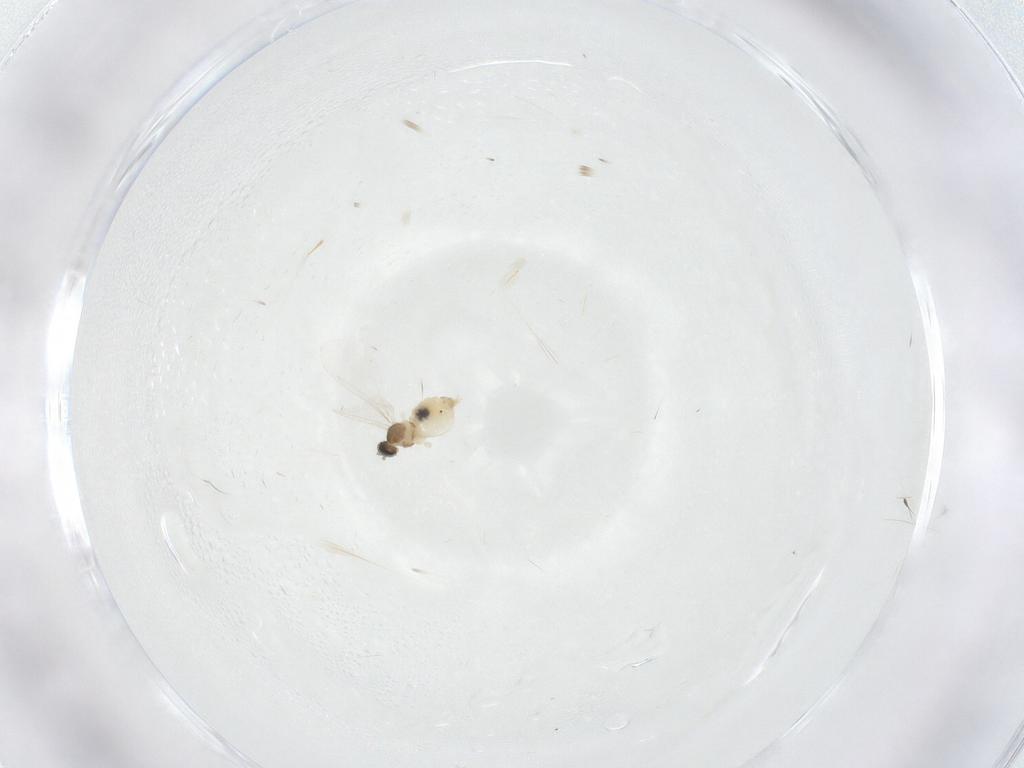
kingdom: Animalia
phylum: Arthropoda
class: Insecta
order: Diptera
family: Cecidomyiidae
